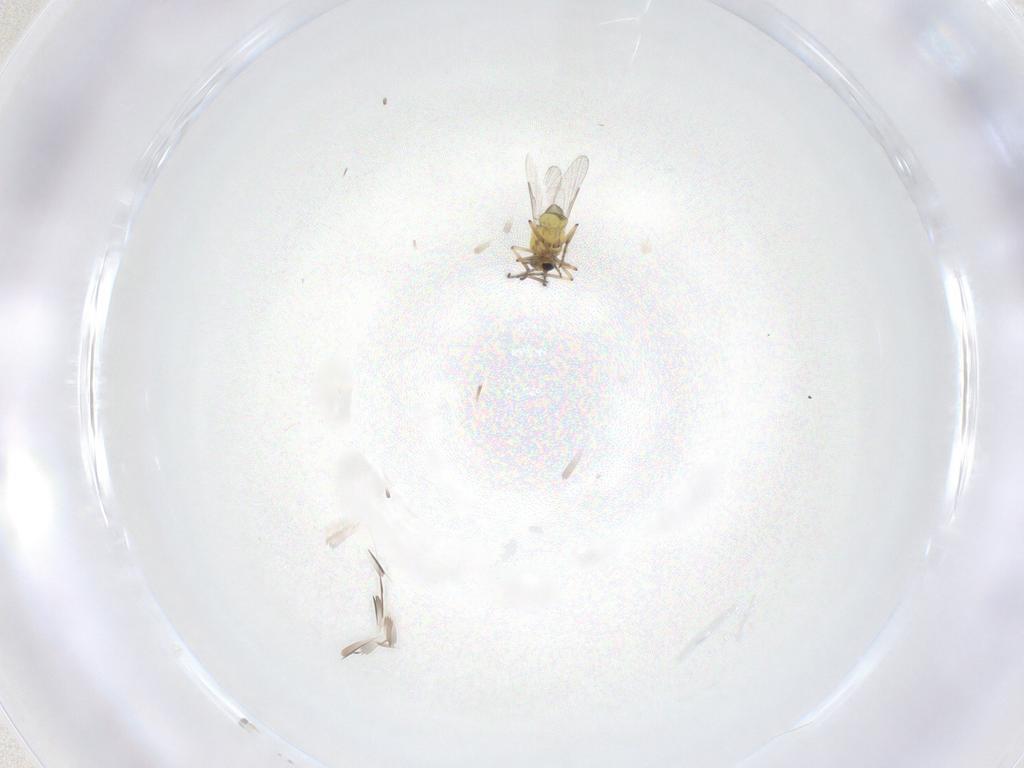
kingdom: Animalia
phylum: Arthropoda
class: Insecta
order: Diptera
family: Ceratopogonidae
